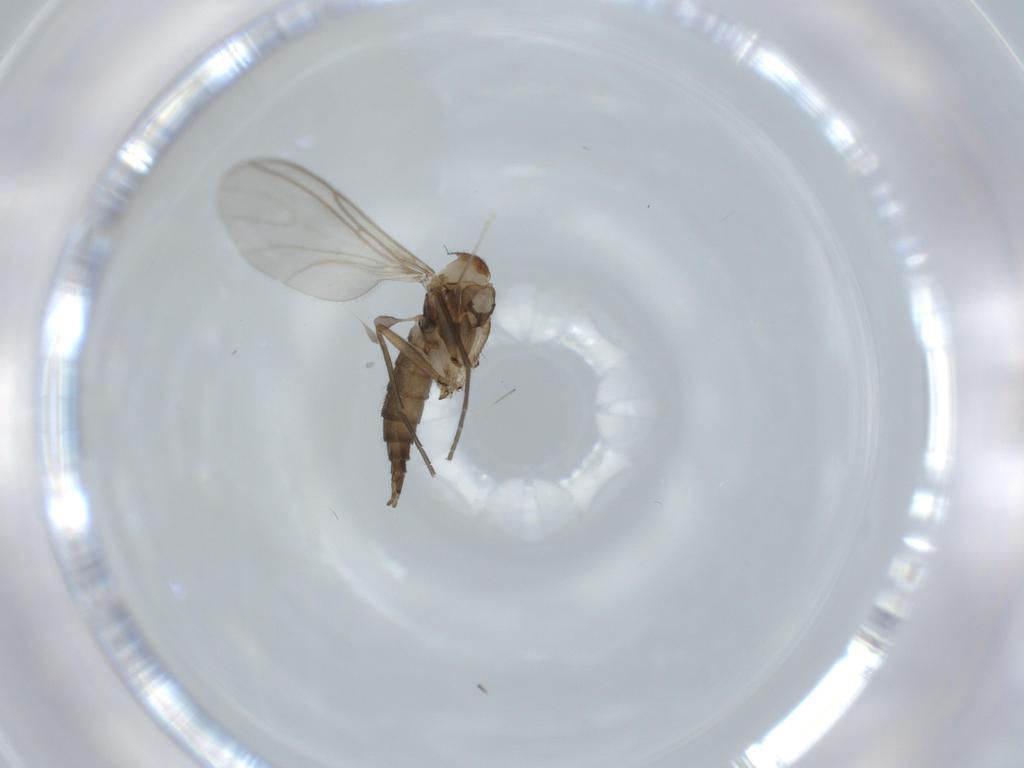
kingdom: Animalia
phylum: Arthropoda
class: Insecta
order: Diptera
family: Sciaridae
